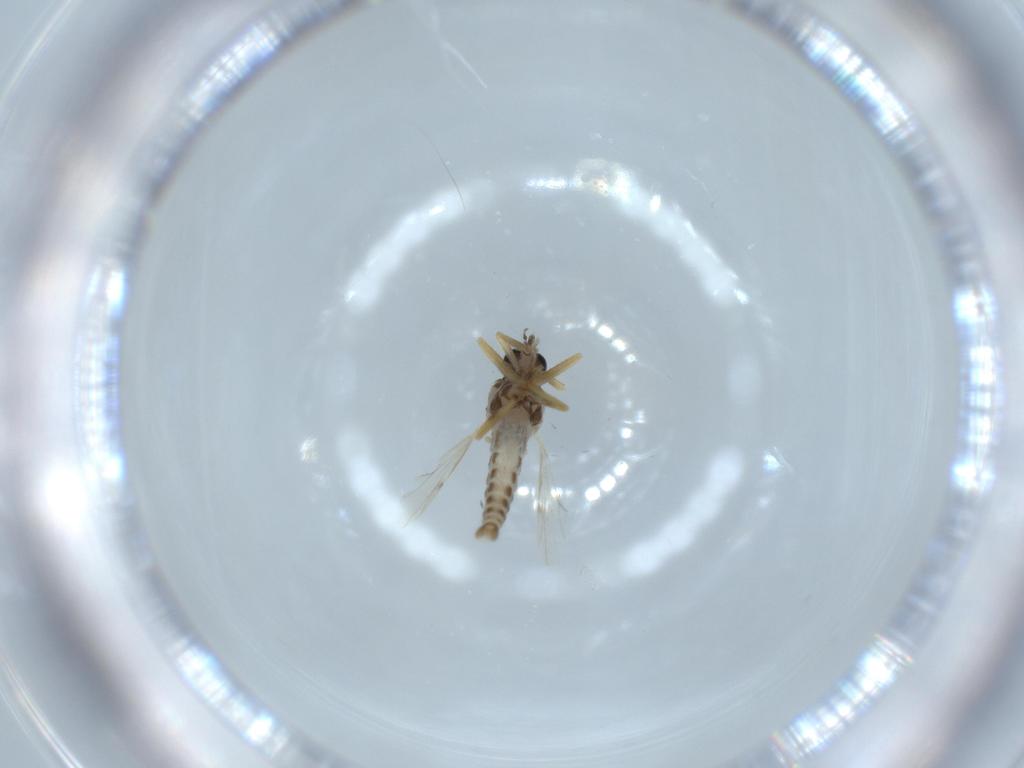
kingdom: Animalia
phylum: Arthropoda
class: Insecta
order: Diptera
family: Ceratopogonidae
